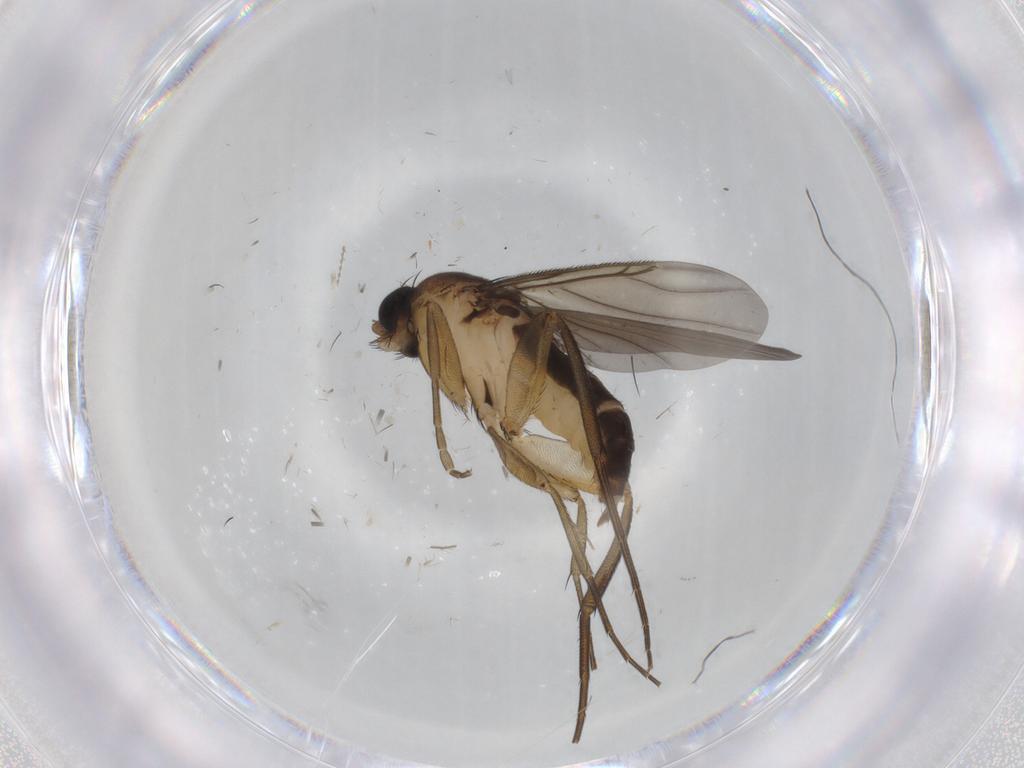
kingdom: Animalia
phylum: Arthropoda
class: Insecta
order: Diptera
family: Phoridae
